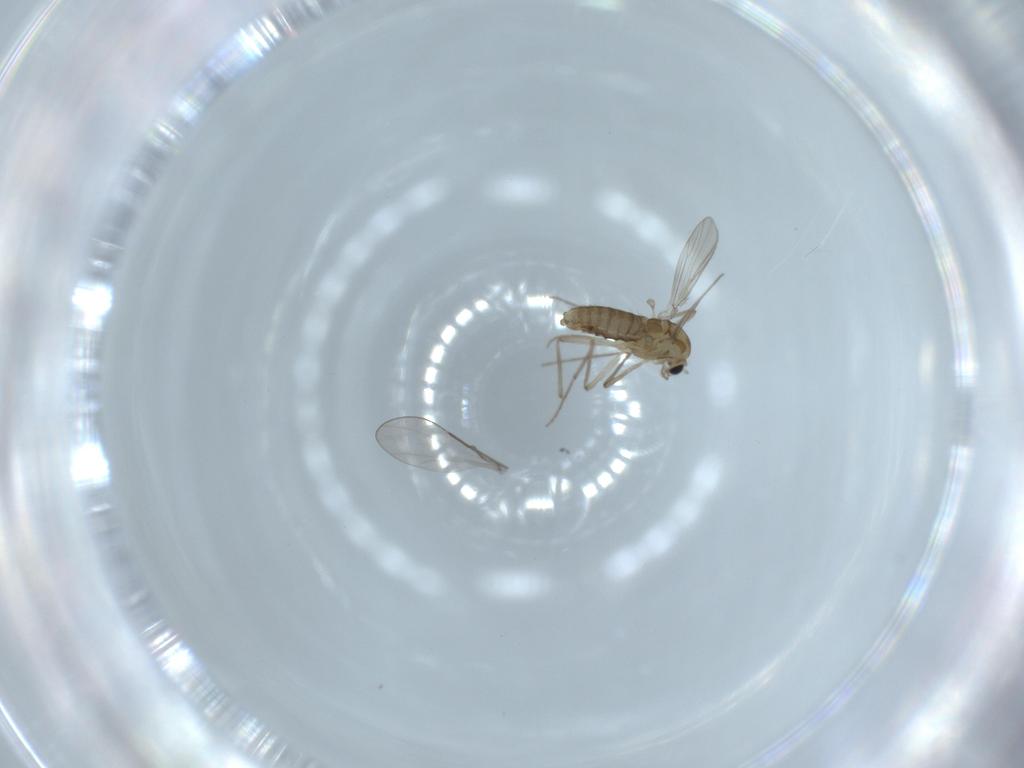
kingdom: Animalia
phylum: Arthropoda
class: Insecta
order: Diptera
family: Chironomidae
